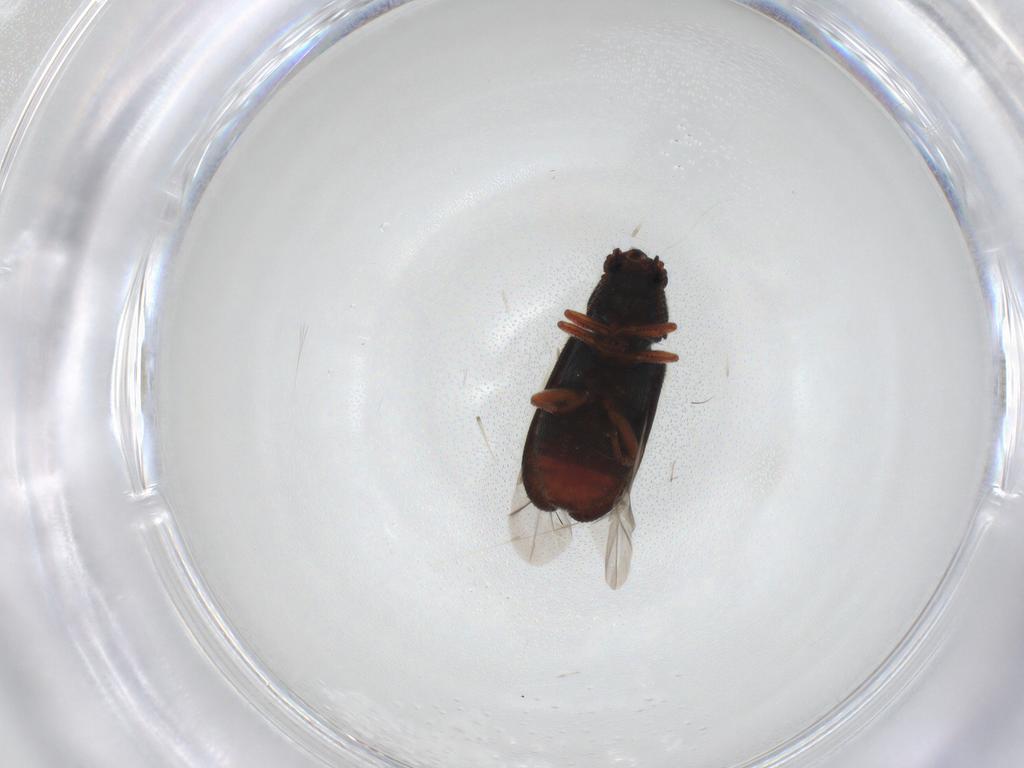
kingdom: Animalia
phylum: Arthropoda
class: Insecta
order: Coleoptera
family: Melyridae
